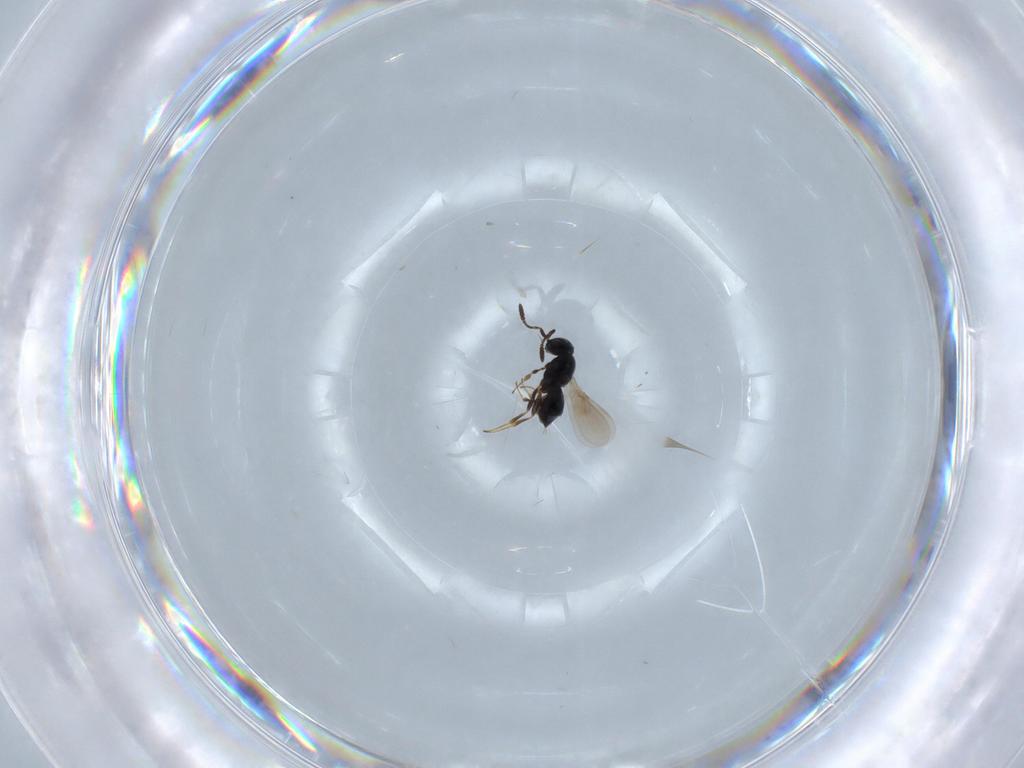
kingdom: Animalia
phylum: Arthropoda
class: Insecta
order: Hymenoptera
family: Scelionidae
